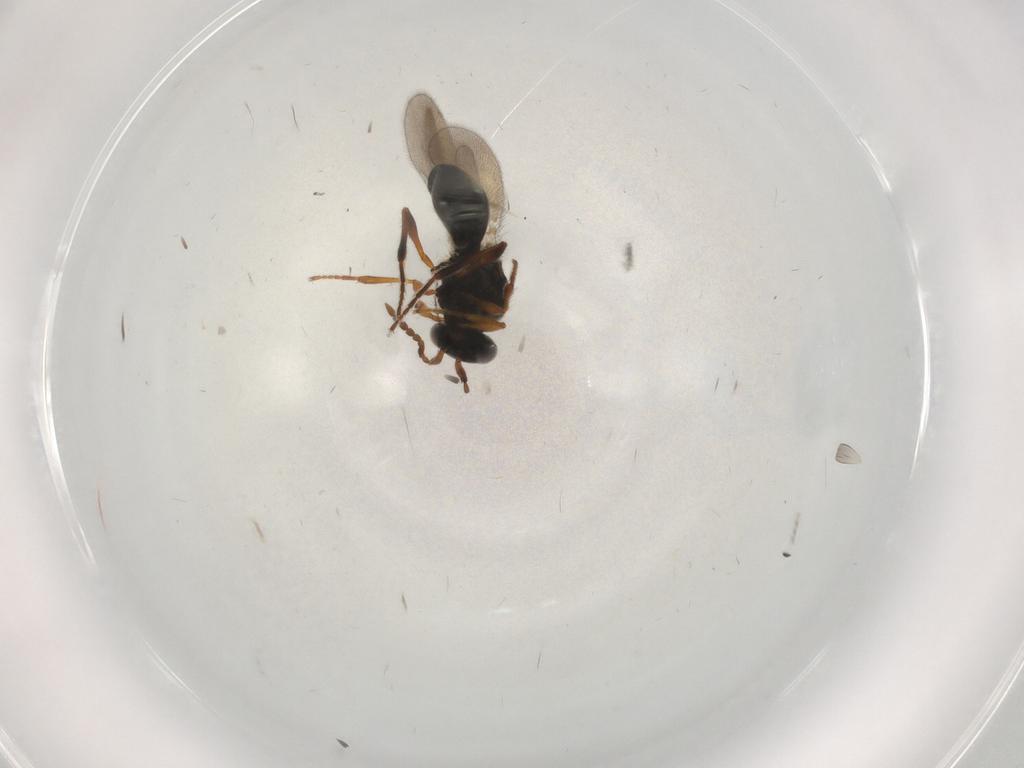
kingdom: Animalia
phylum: Arthropoda
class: Insecta
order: Hymenoptera
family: Platygastridae
